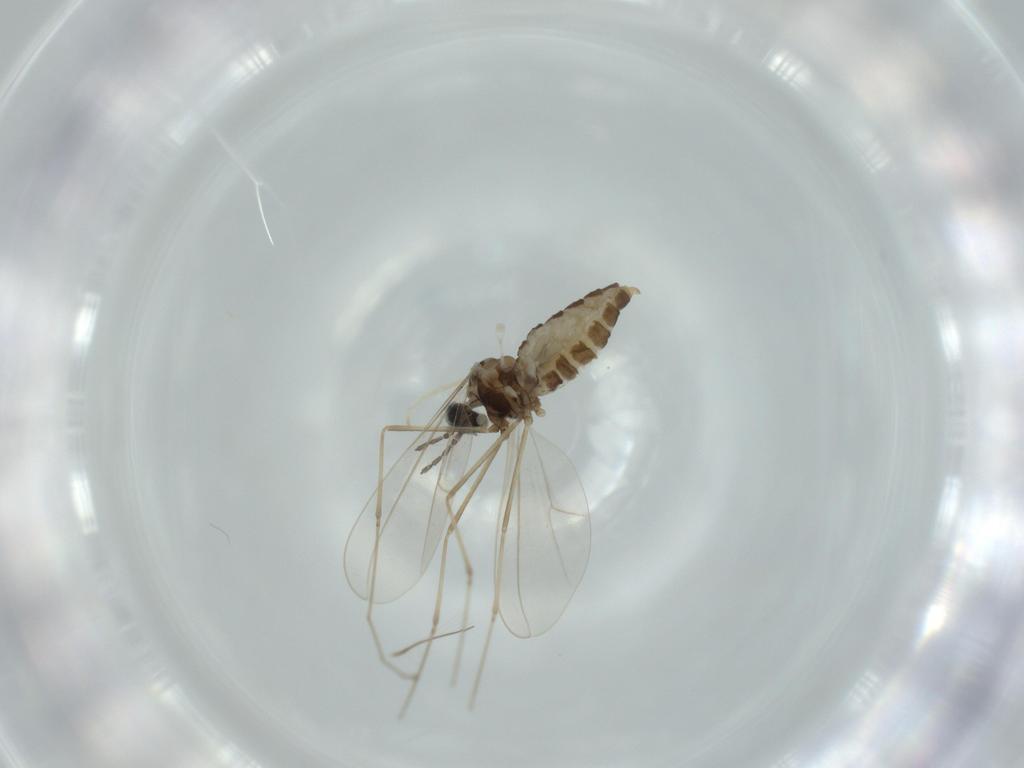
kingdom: Animalia
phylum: Arthropoda
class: Insecta
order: Diptera
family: Cecidomyiidae
